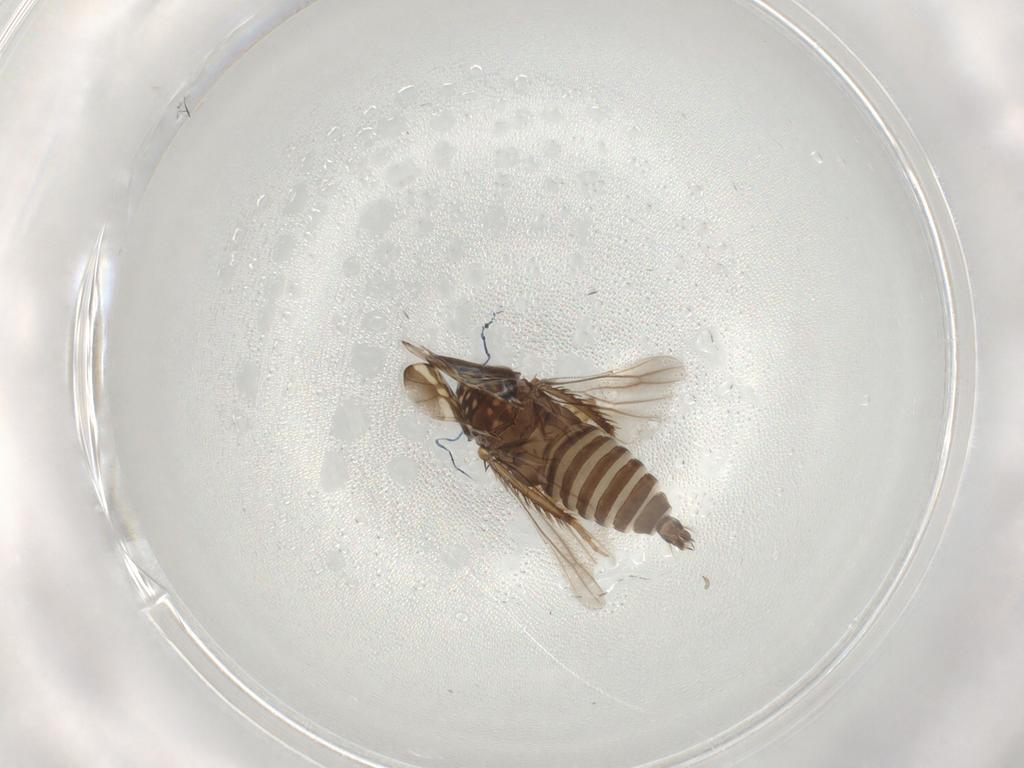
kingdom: Animalia
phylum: Arthropoda
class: Insecta
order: Hemiptera
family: Cicadellidae
